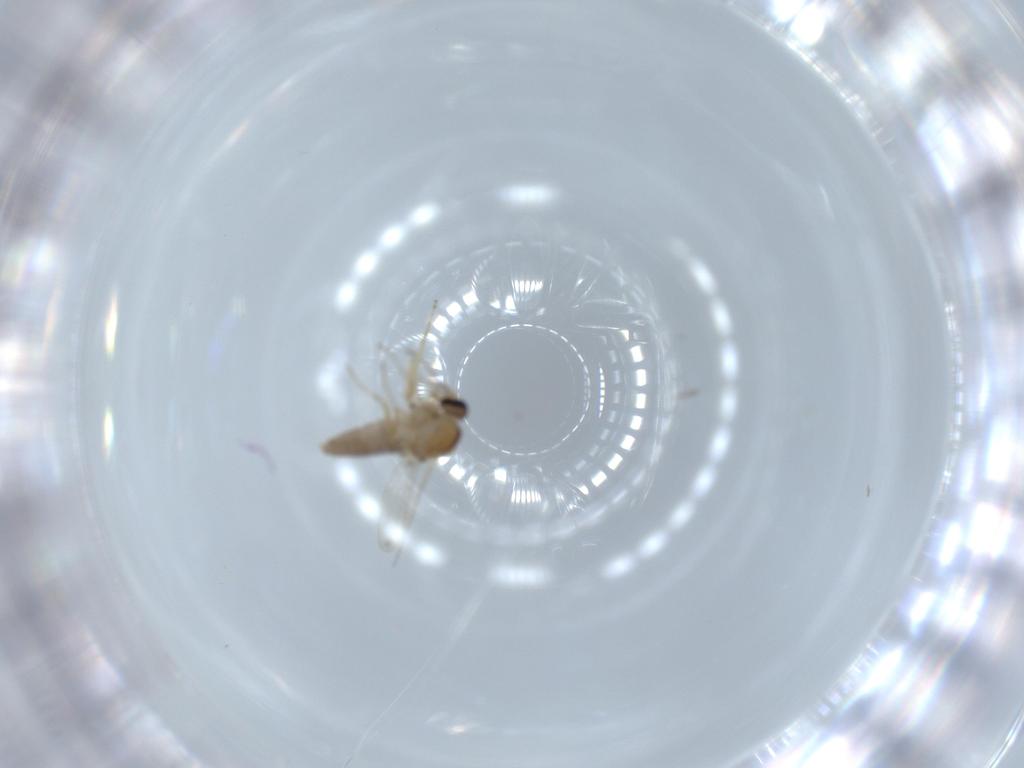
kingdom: Animalia
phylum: Arthropoda
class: Insecta
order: Diptera
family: Ceratopogonidae
